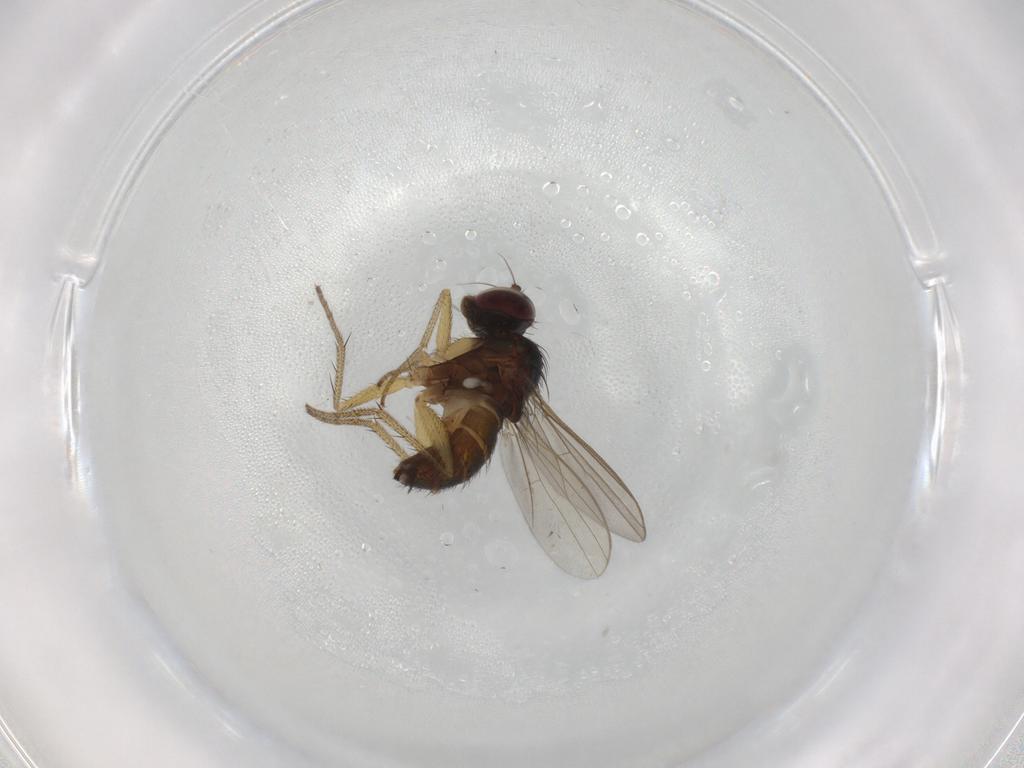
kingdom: Animalia
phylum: Arthropoda
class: Insecta
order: Diptera
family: Dolichopodidae
